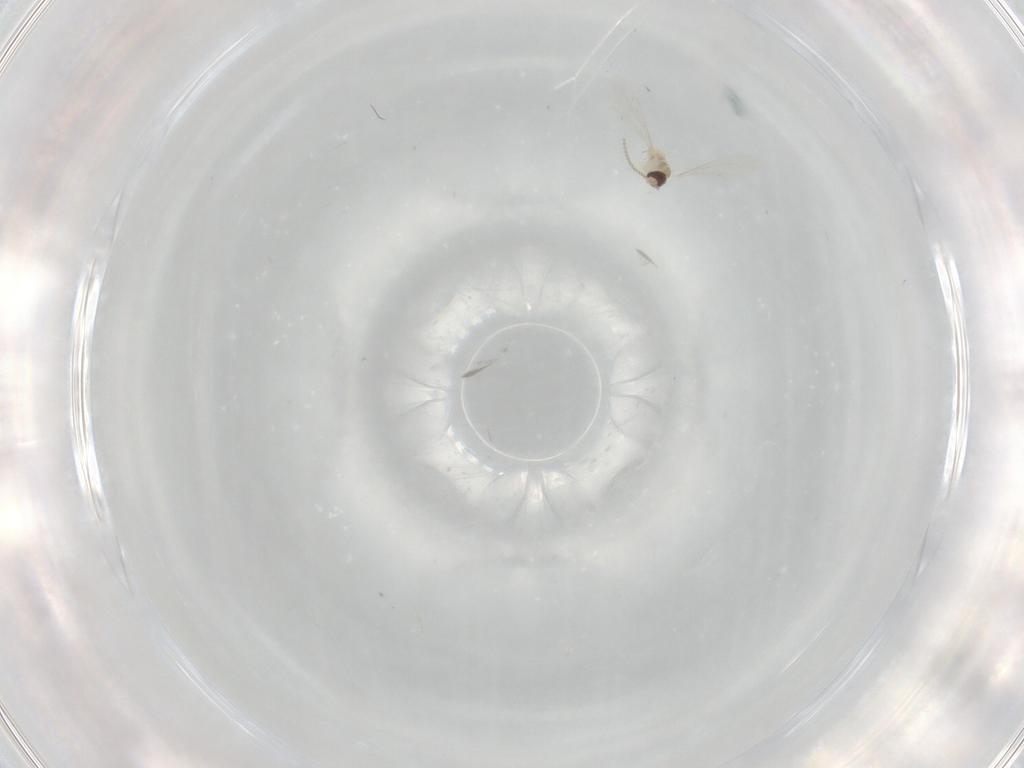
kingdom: Animalia
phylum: Arthropoda
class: Insecta
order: Diptera
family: Cecidomyiidae
